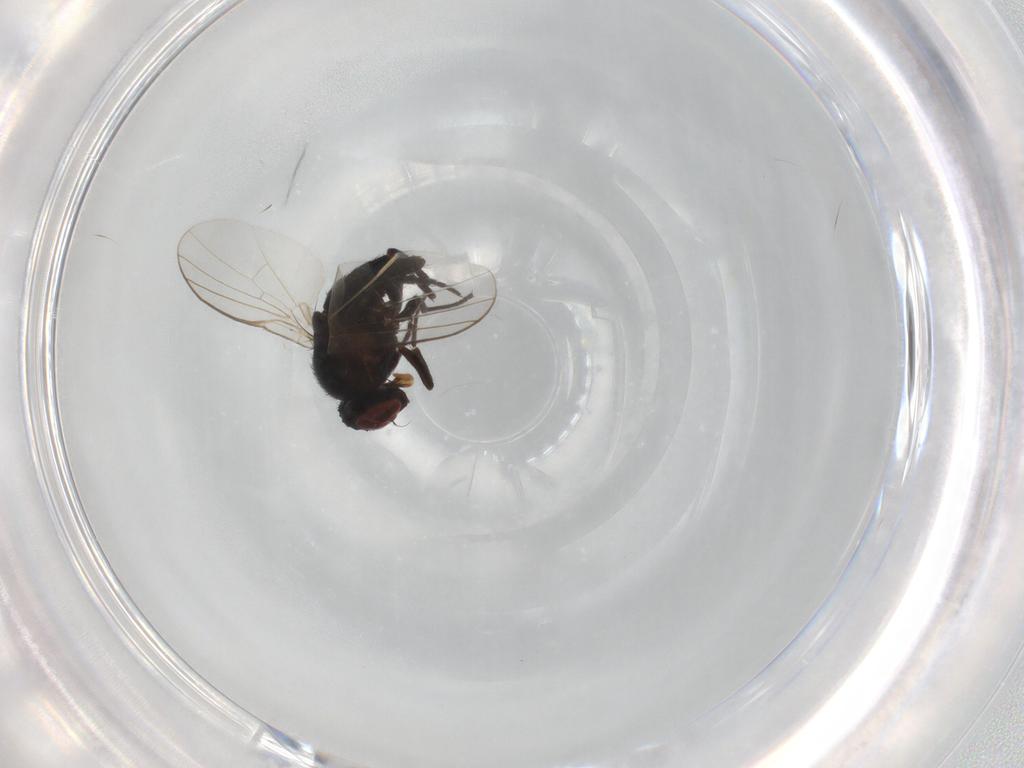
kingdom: Animalia
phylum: Arthropoda
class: Insecta
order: Diptera
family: Agromyzidae
